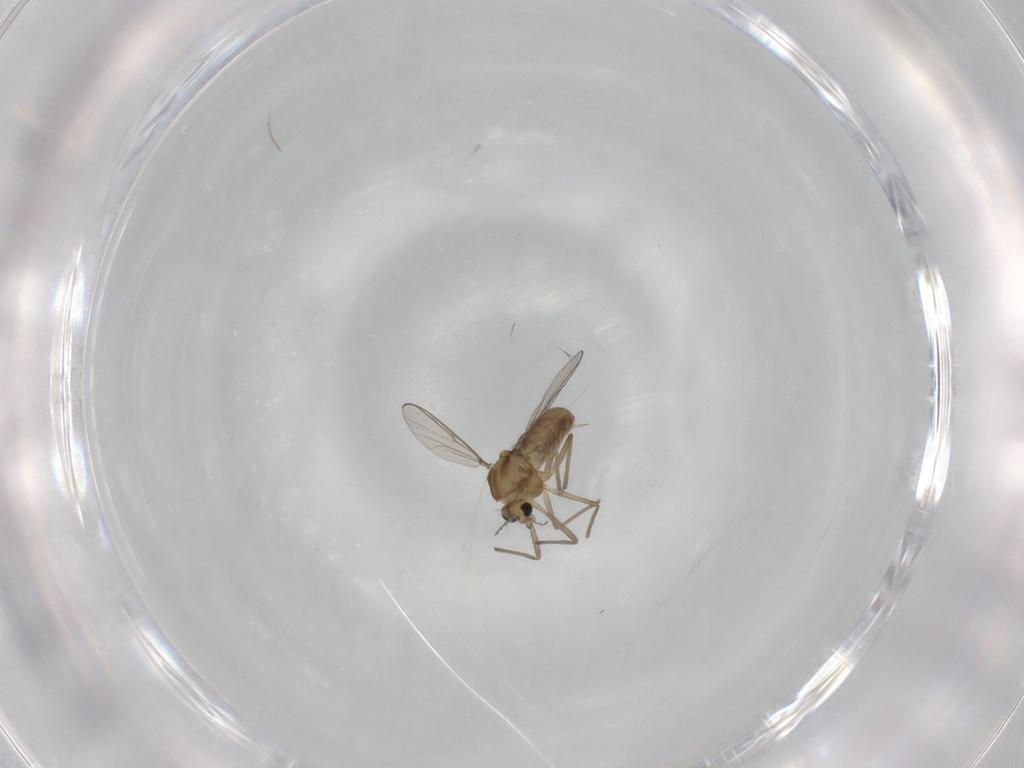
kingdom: Animalia
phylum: Arthropoda
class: Insecta
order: Diptera
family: Chironomidae
